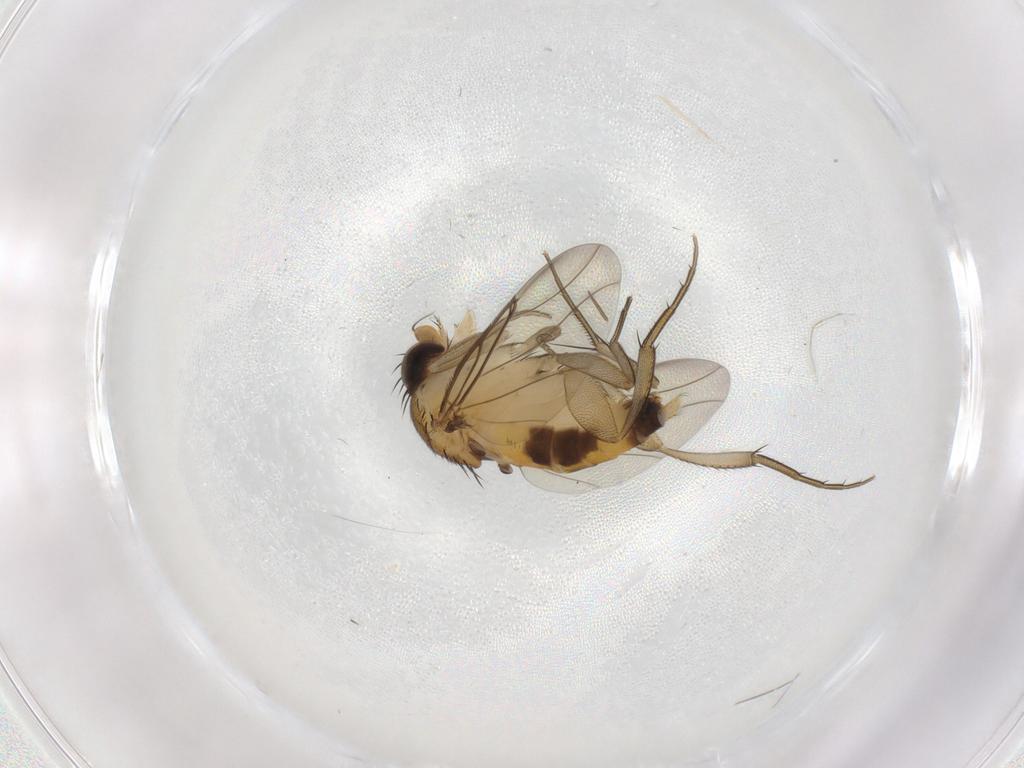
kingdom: Animalia
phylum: Arthropoda
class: Insecta
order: Diptera
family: Phoridae
